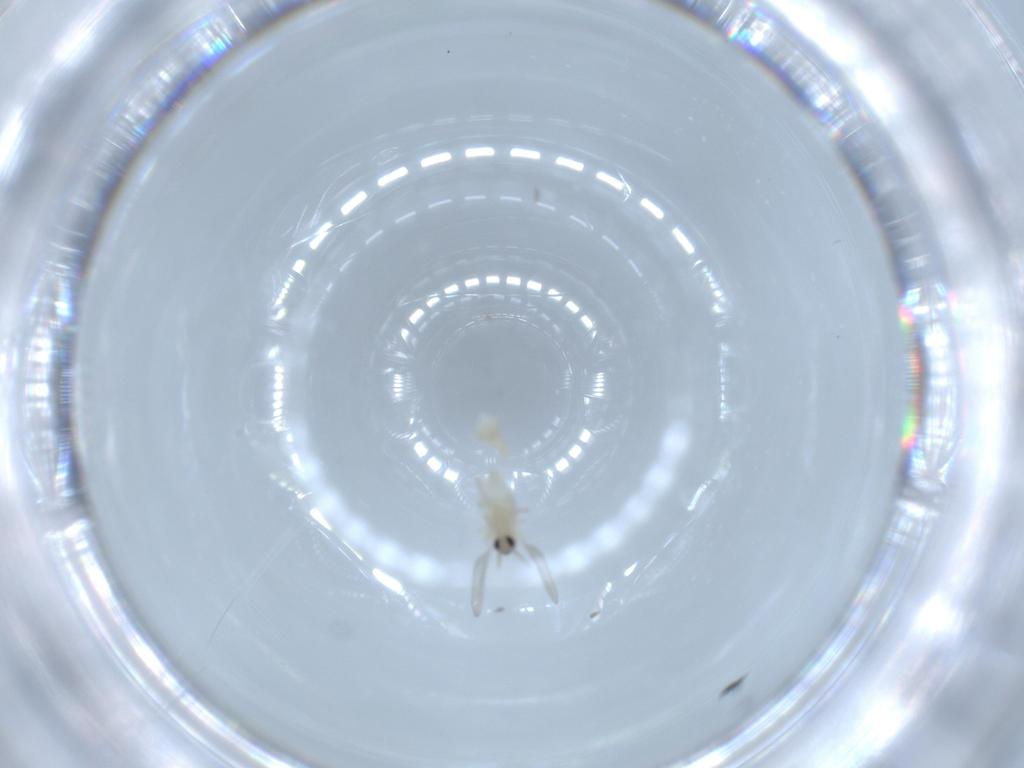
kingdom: Animalia
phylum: Arthropoda
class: Insecta
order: Diptera
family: Cecidomyiidae
